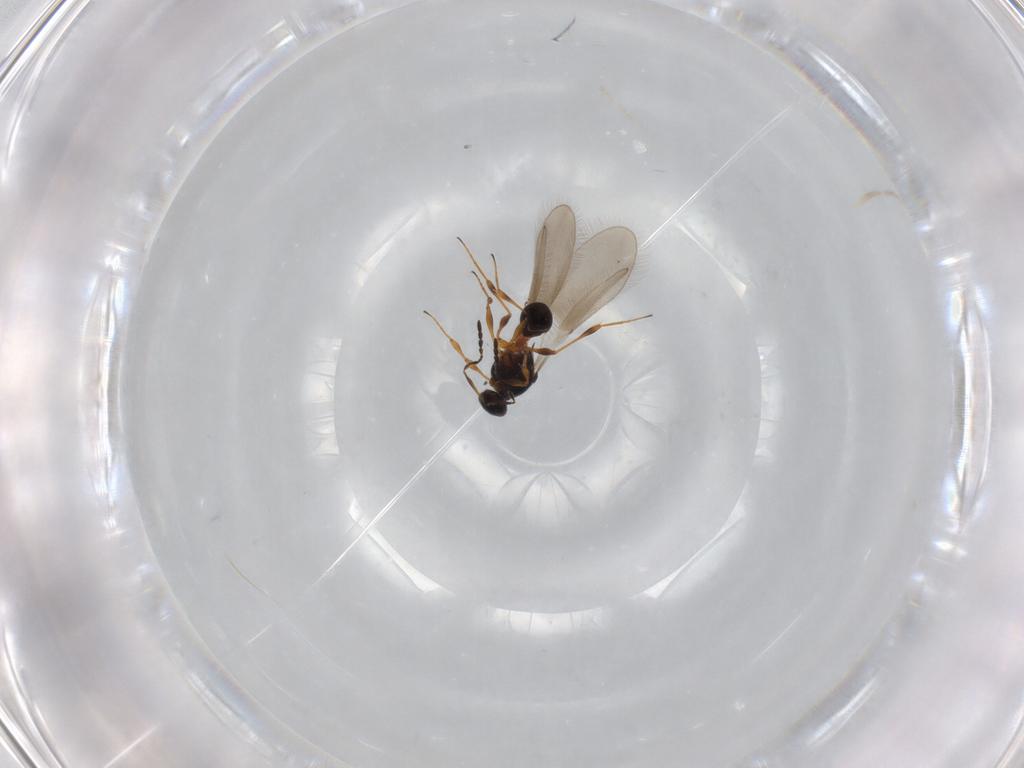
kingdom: Animalia
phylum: Arthropoda
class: Insecta
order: Hymenoptera
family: Platygastridae
